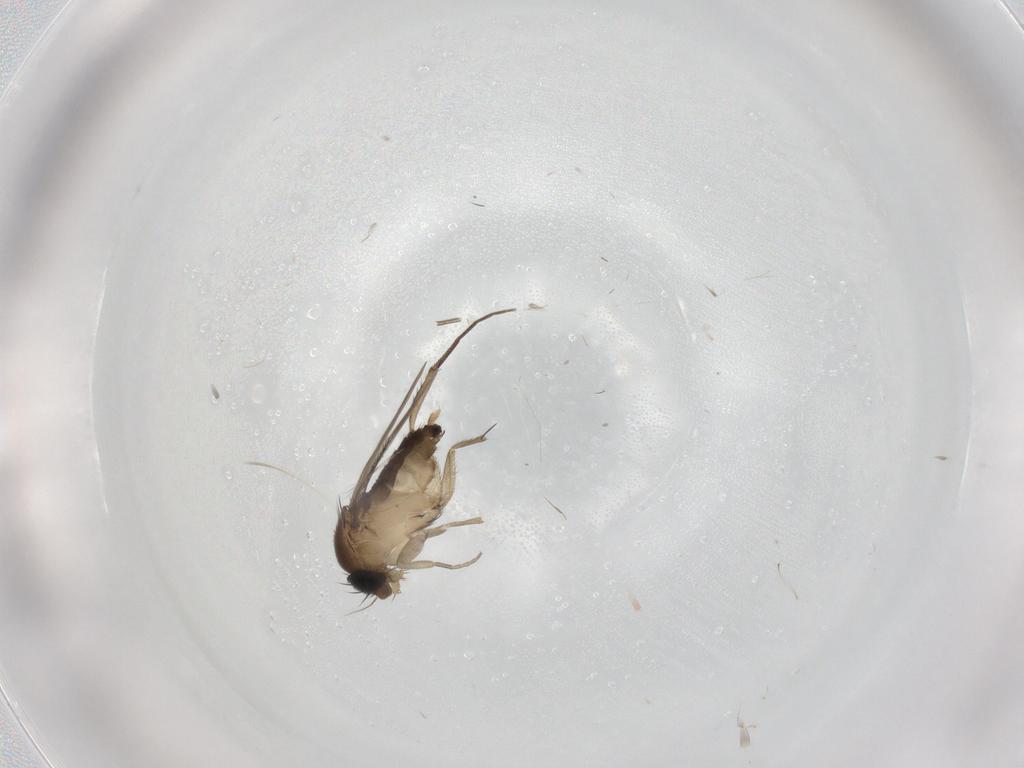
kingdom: Animalia
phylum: Arthropoda
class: Insecta
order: Diptera
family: Phoridae
